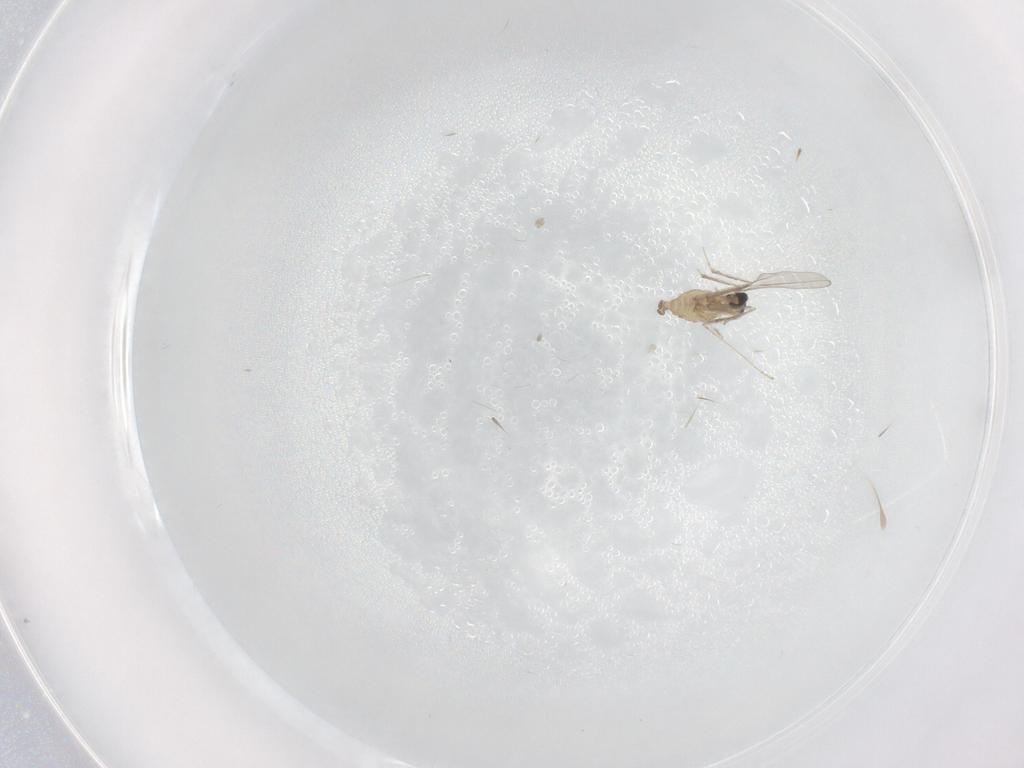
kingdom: Animalia
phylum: Arthropoda
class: Insecta
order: Diptera
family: Cecidomyiidae
